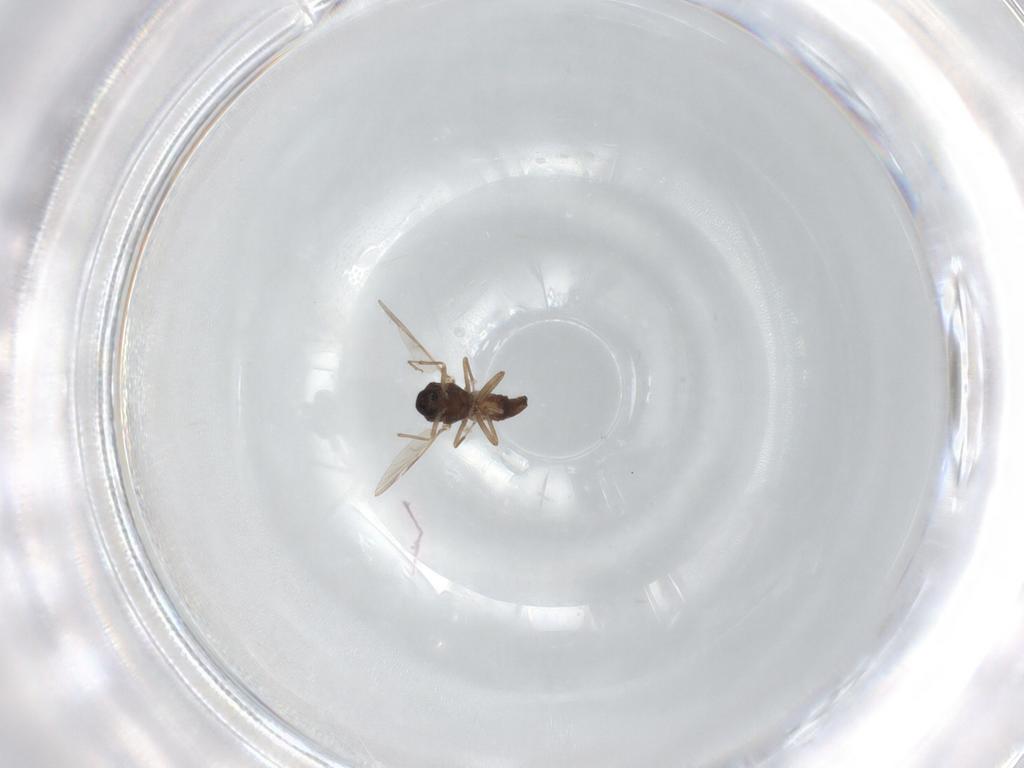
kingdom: Animalia
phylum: Arthropoda
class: Insecta
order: Diptera
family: Ceratopogonidae
